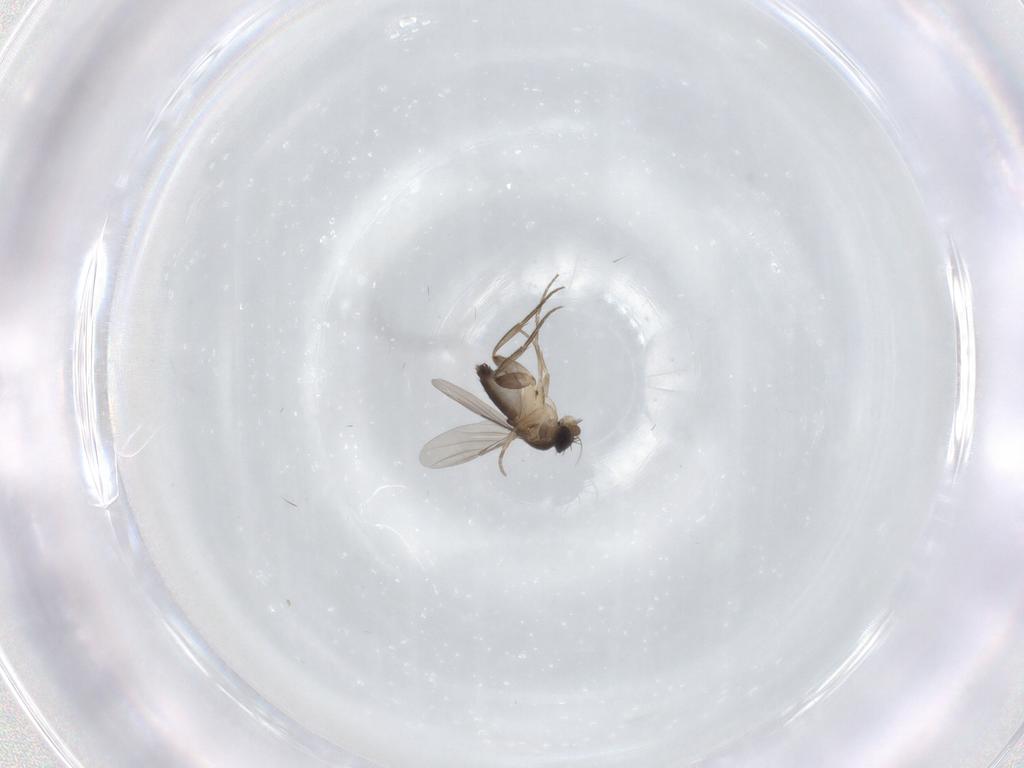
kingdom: Animalia
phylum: Arthropoda
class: Insecta
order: Diptera
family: Phoridae
